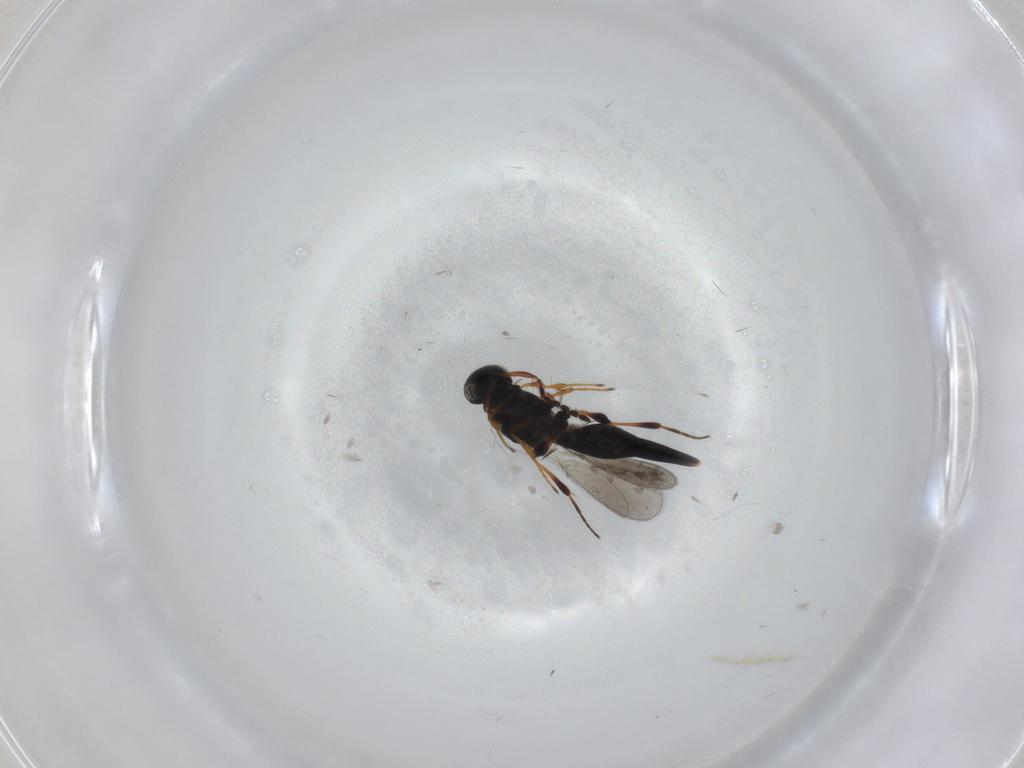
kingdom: Animalia
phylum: Arthropoda
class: Insecta
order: Hymenoptera
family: Platygastridae
